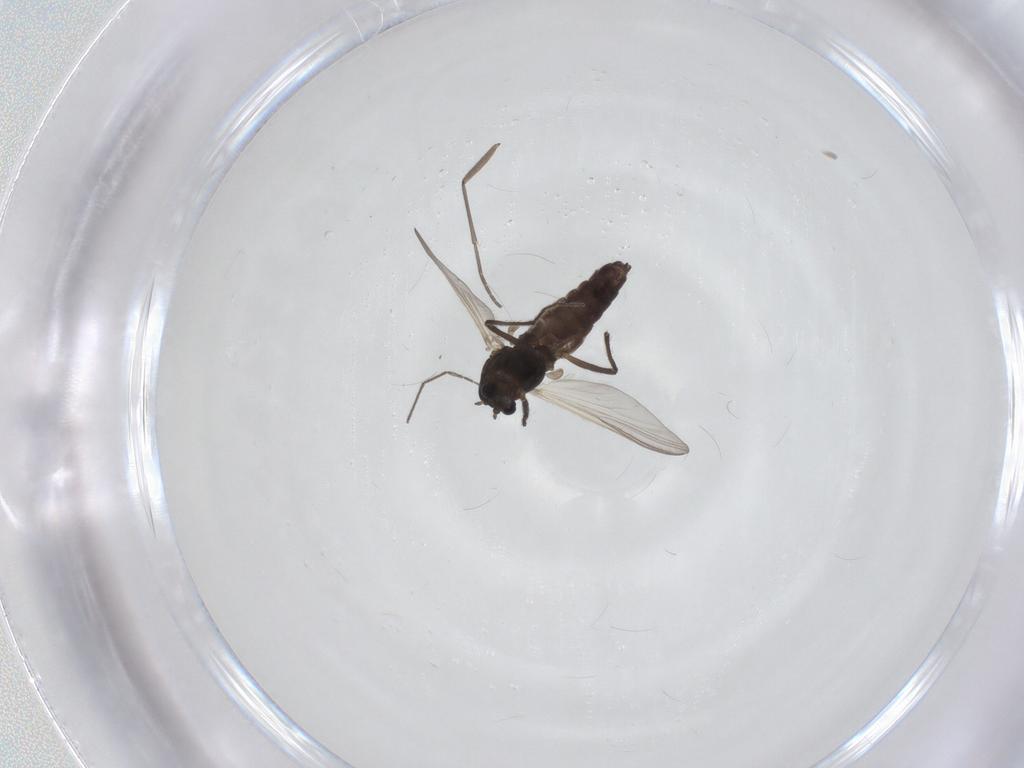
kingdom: Animalia
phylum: Arthropoda
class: Insecta
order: Diptera
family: Chironomidae
